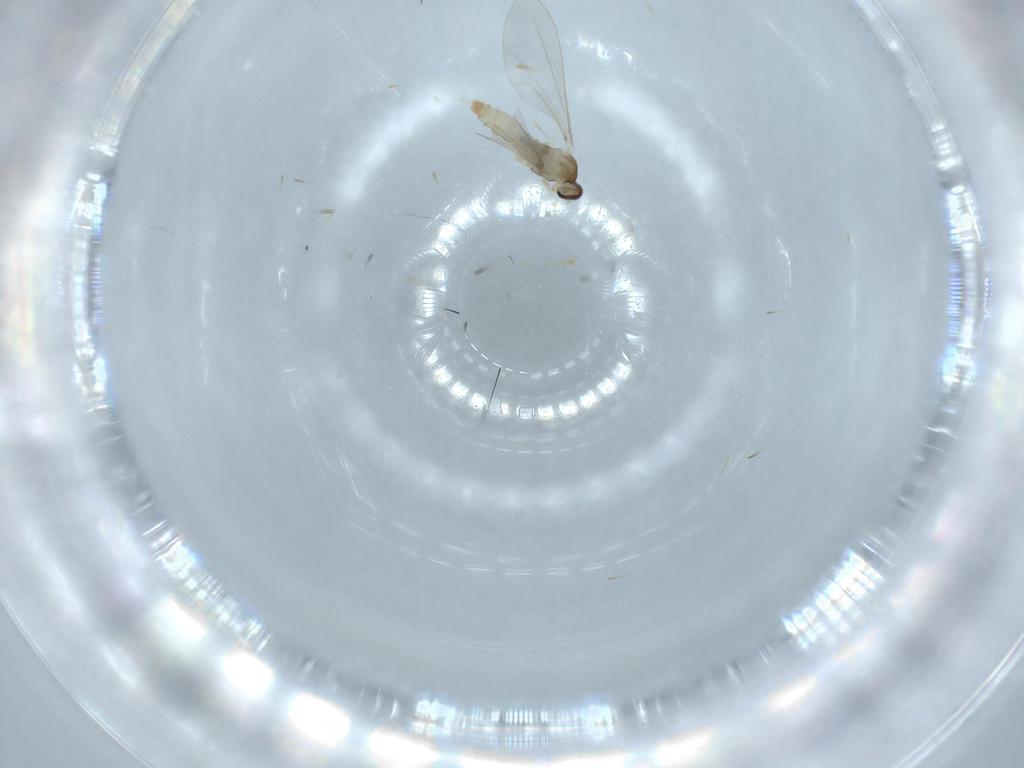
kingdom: Animalia
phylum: Arthropoda
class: Insecta
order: Diptera
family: Cecidomyiidae
